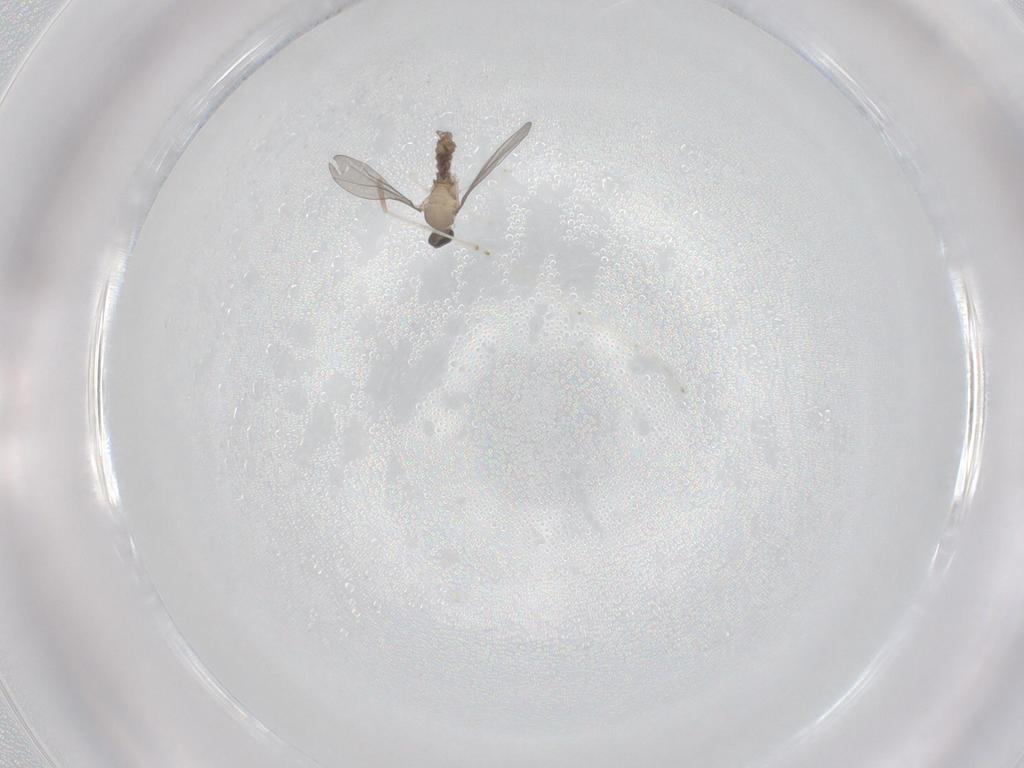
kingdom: Animalia
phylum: Arthropoda
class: Insecta
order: Diptera
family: Cecidomyiidae
